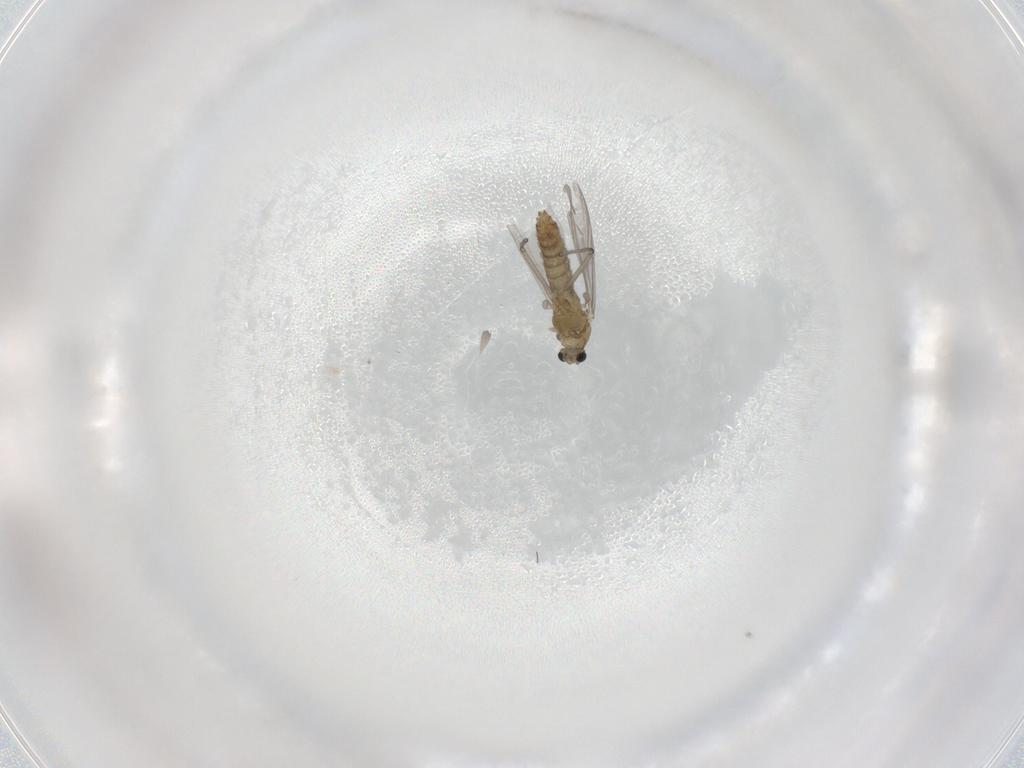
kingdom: Animalia
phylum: Arthropoda
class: Insecta
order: Diptera
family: Chironomidae
